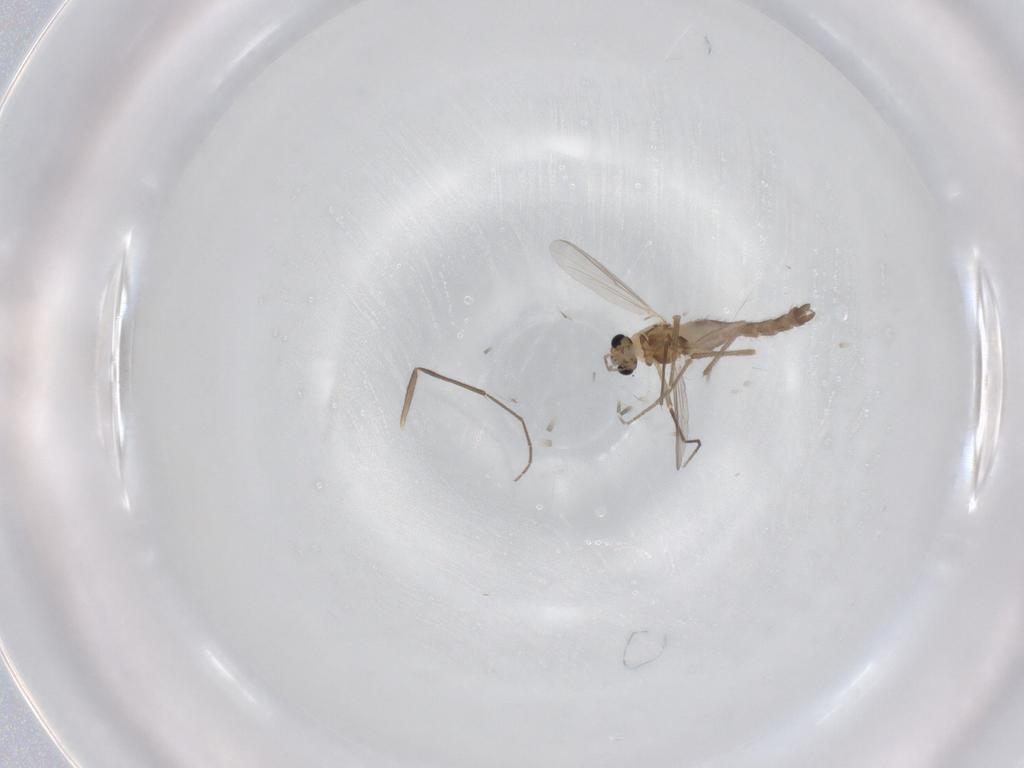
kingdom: Animalia
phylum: Arthropoda
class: Insecta
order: Diptera
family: Chironomidae
